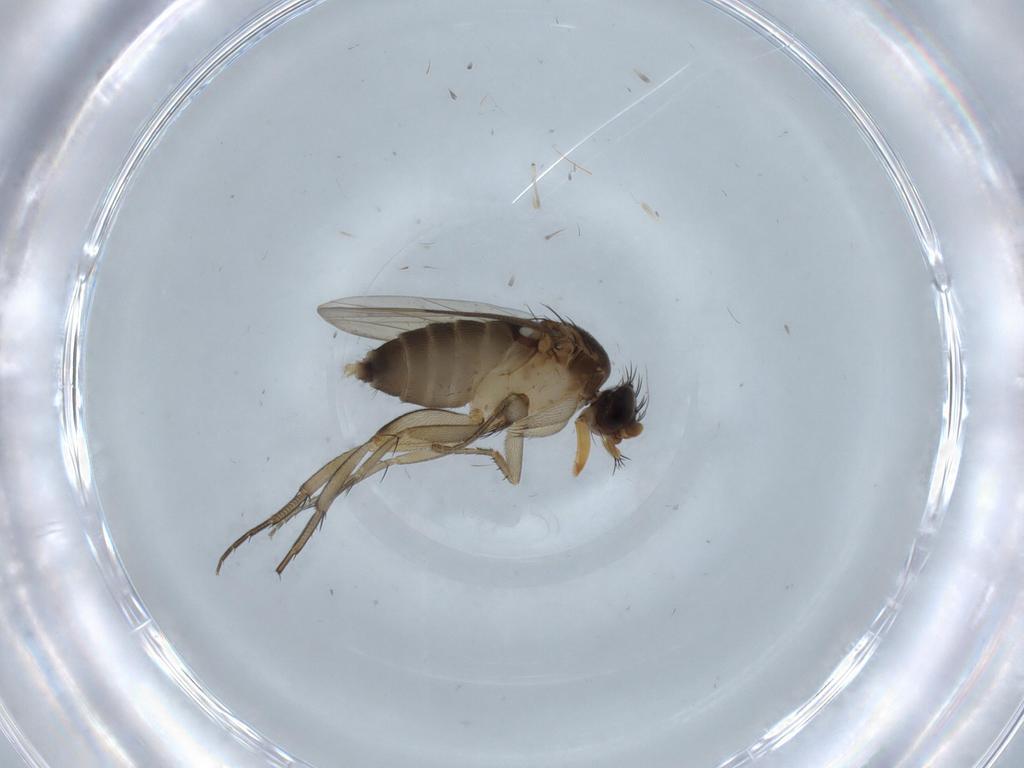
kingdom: Animalia
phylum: Arthropoda
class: Insecta
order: Diptera
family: Phoridae
